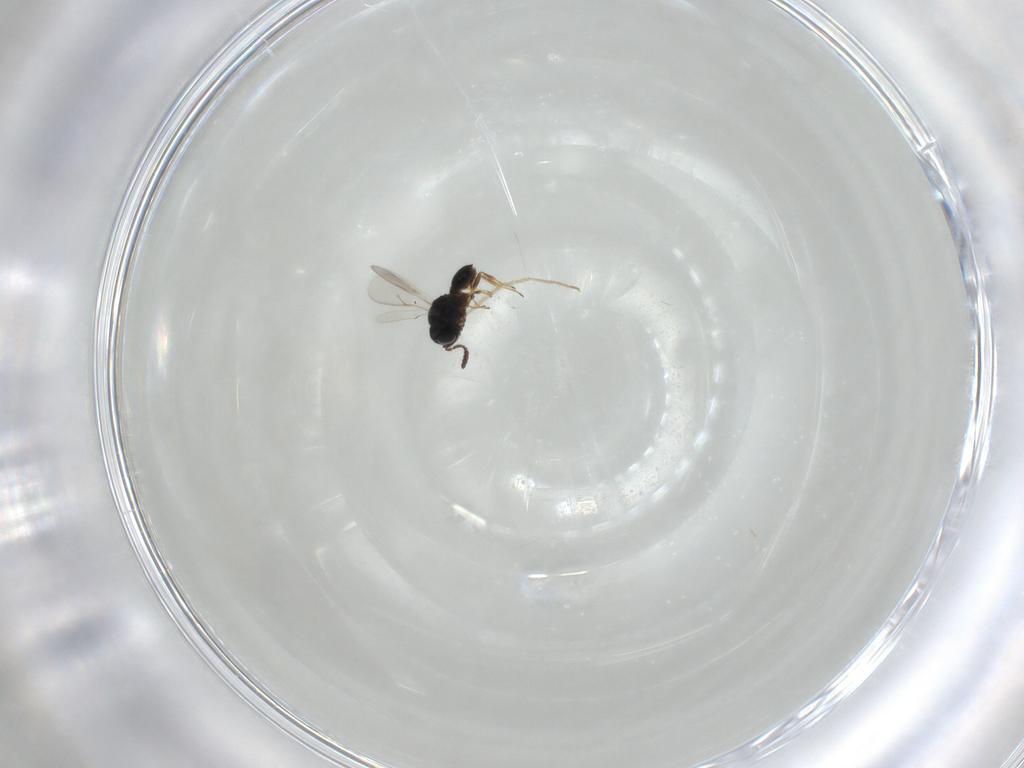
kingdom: Animalia
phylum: Arthropoda
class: Insecta
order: Hymenoptera
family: Scelionidae
